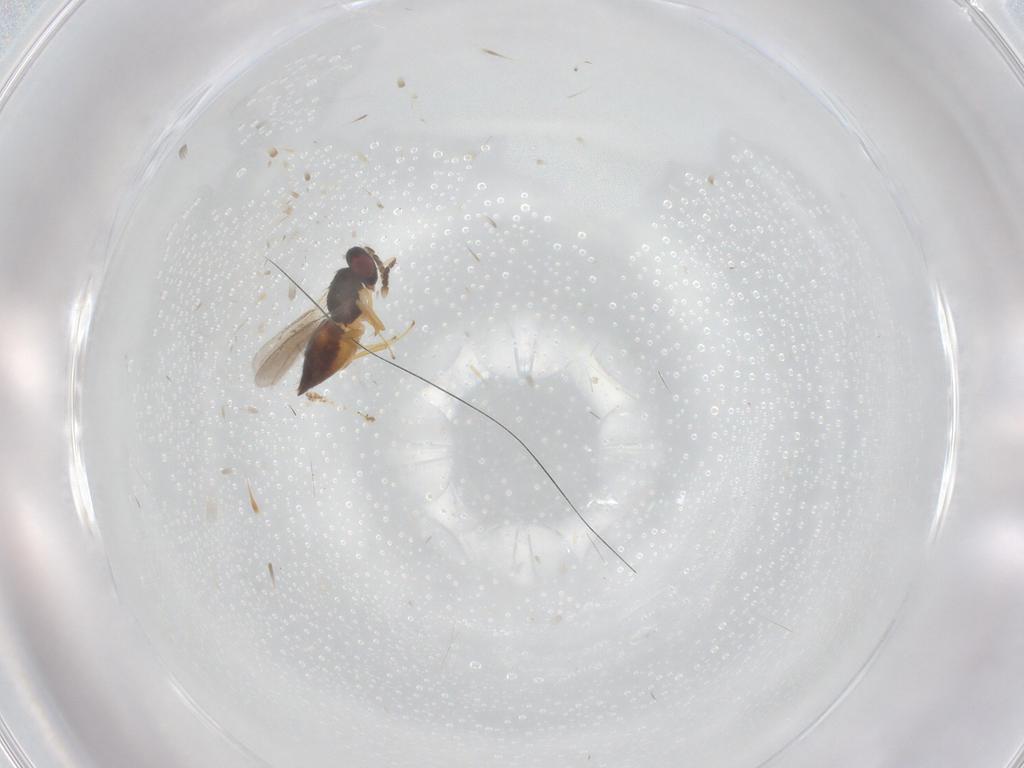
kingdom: Animalia
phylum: Arthropoda
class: Insecta
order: Hymenoptera
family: Eulophidae
